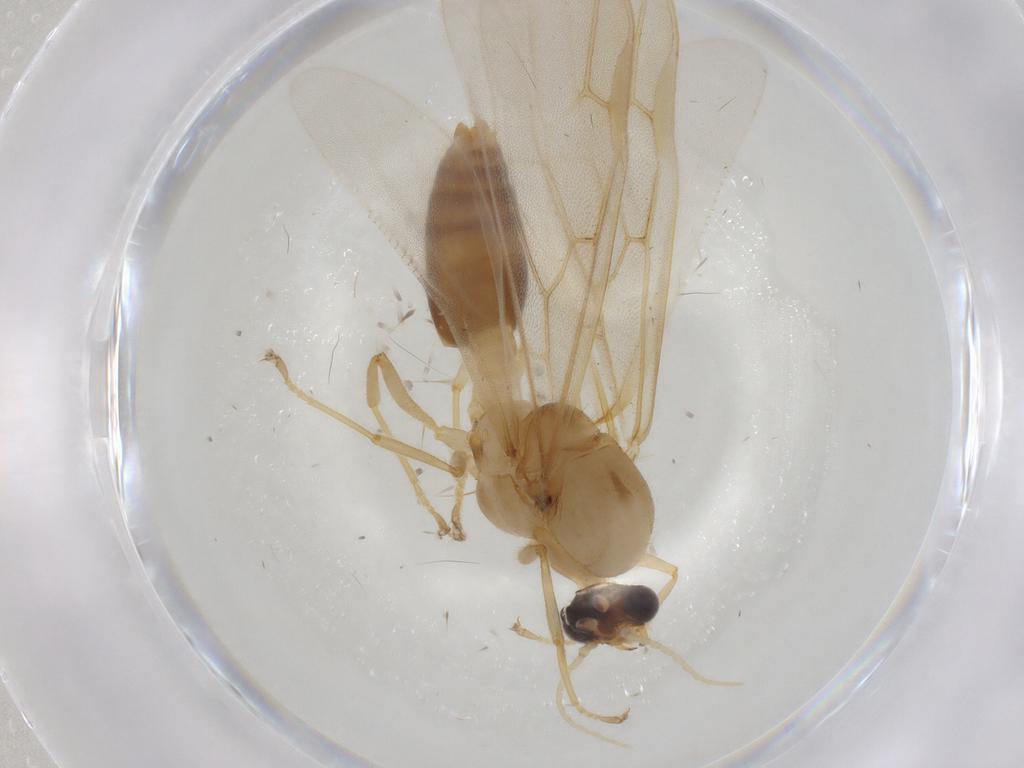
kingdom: Animalia
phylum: Arthropoda
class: Insecta
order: Hymenoptera
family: Formicidae
